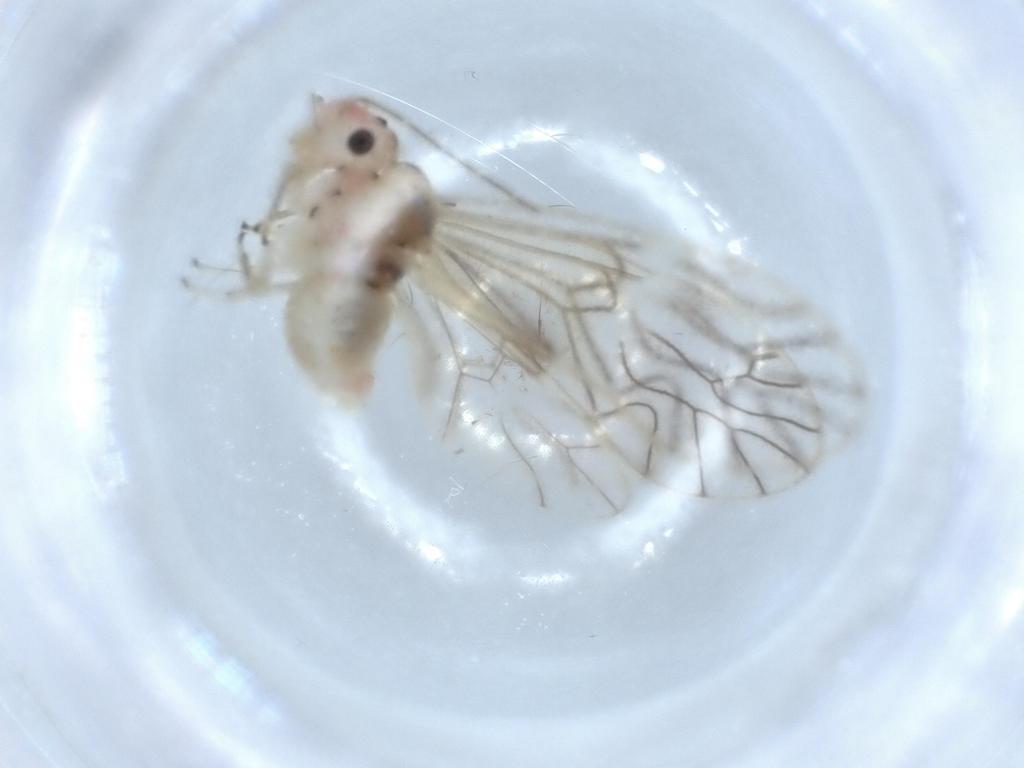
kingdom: Animalia
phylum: Arthropoda
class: Insecta
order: Psocodea
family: Amphipsocidae
